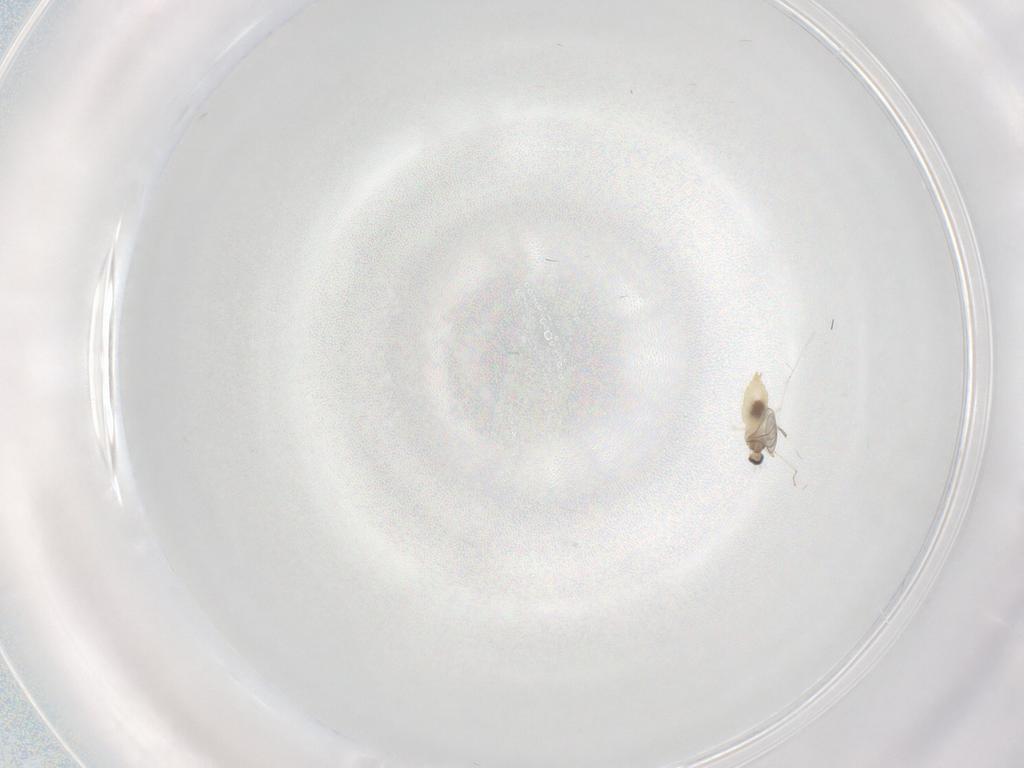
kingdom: Animalia
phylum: Arthropoda
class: Insecta
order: Diptera
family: Cecidomyiidae
